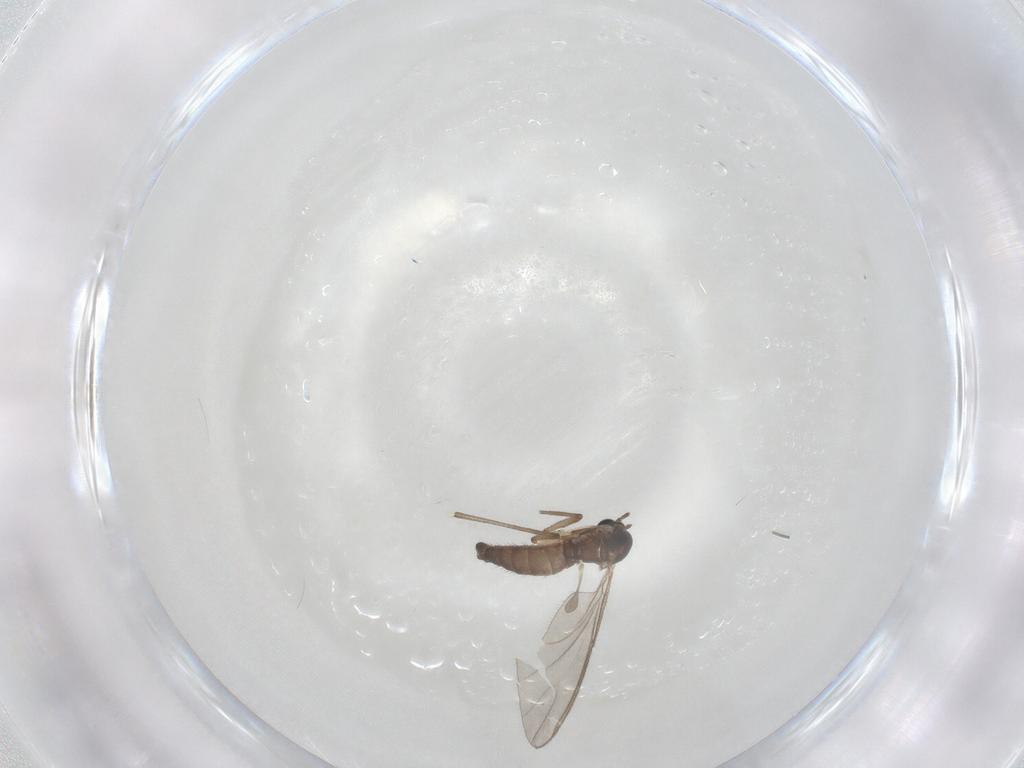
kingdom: Animalia
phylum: Arthropoda
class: Insecta
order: Diptera
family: Sciaridae
